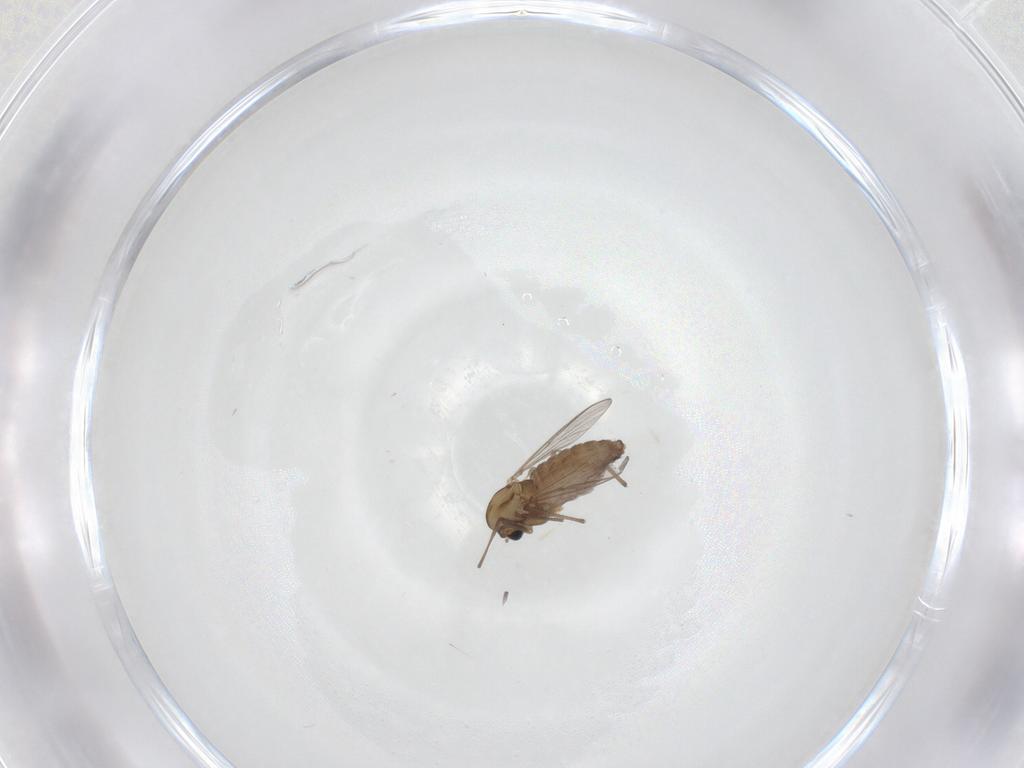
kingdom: Animalia
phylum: Arthropoda
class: Insecta
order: Diptera
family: Chironomidae
